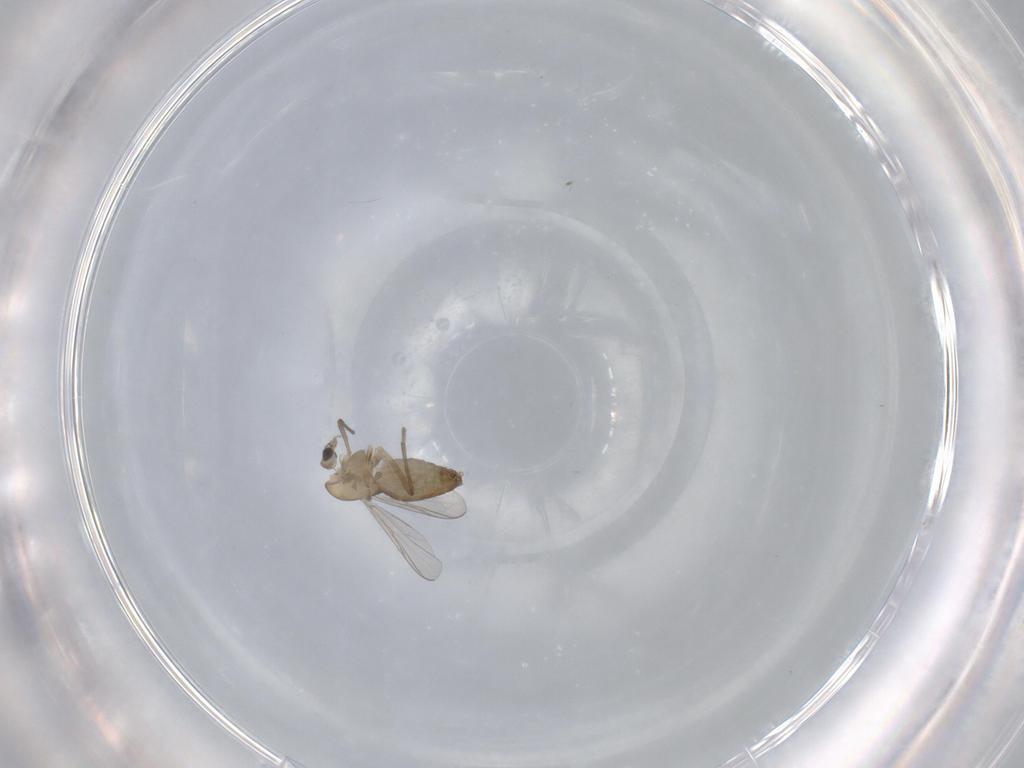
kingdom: Animalia
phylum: Arthropoda
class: Insecta
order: Diptera
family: Chironomidae
